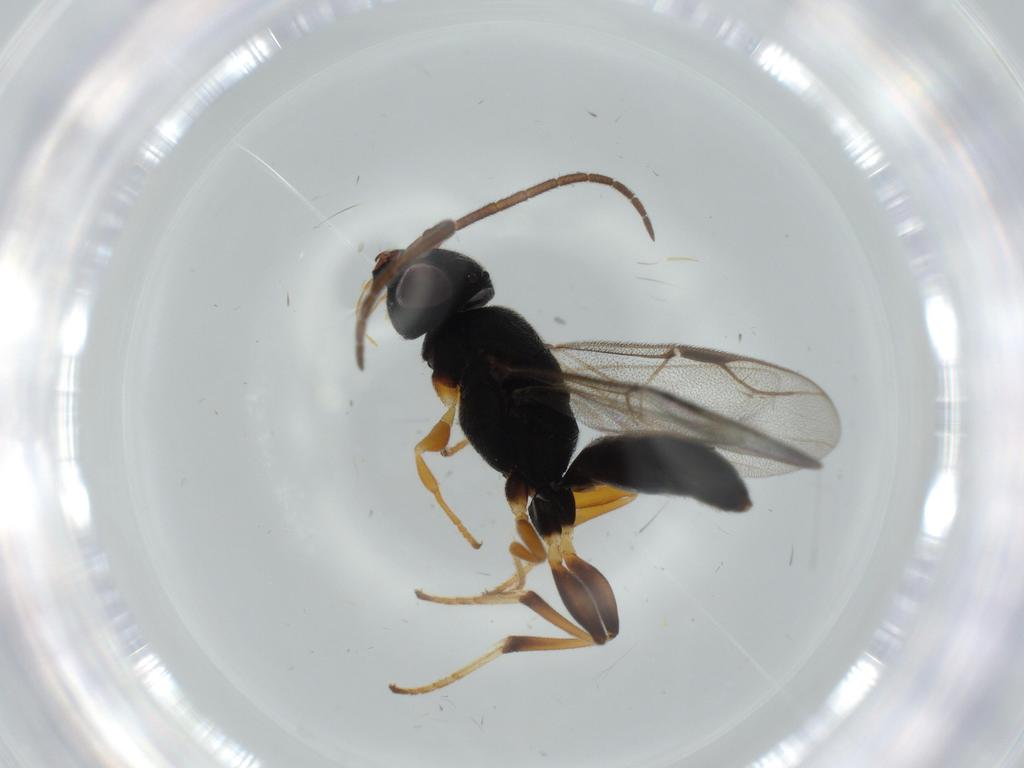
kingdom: Animalia
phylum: Arthropoda
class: Insecta
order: Hymenoptera
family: Dryinidae
